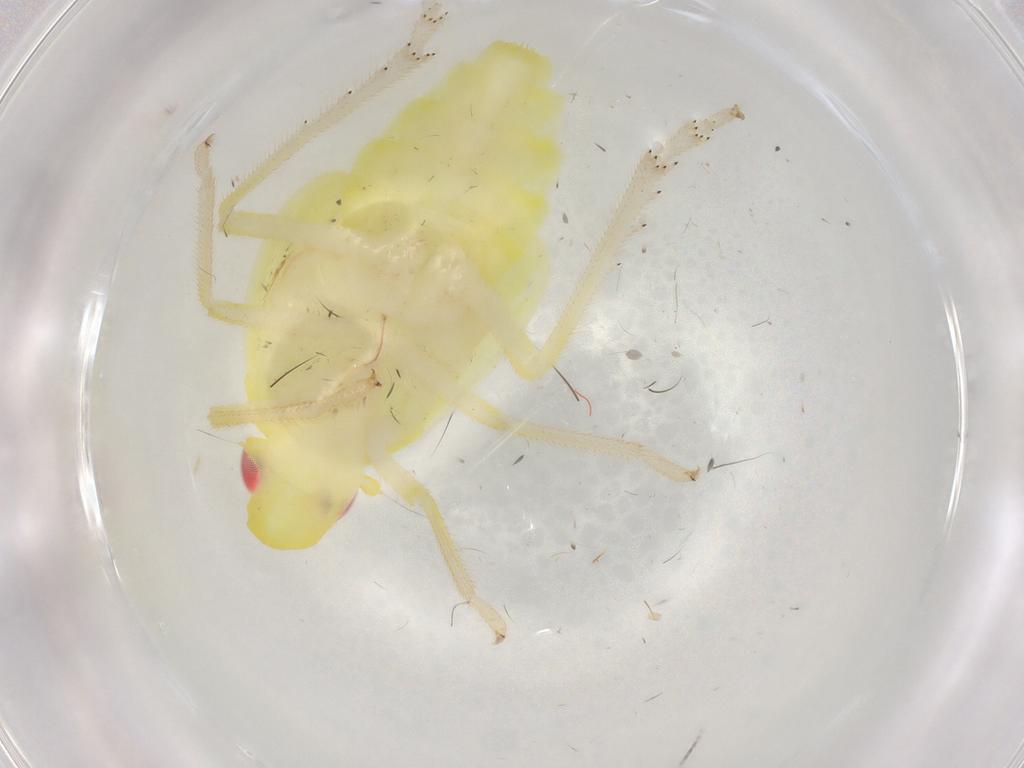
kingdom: Animalia
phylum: Arthropoda
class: Insecta
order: Hemiptera
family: Tropiduchidae
